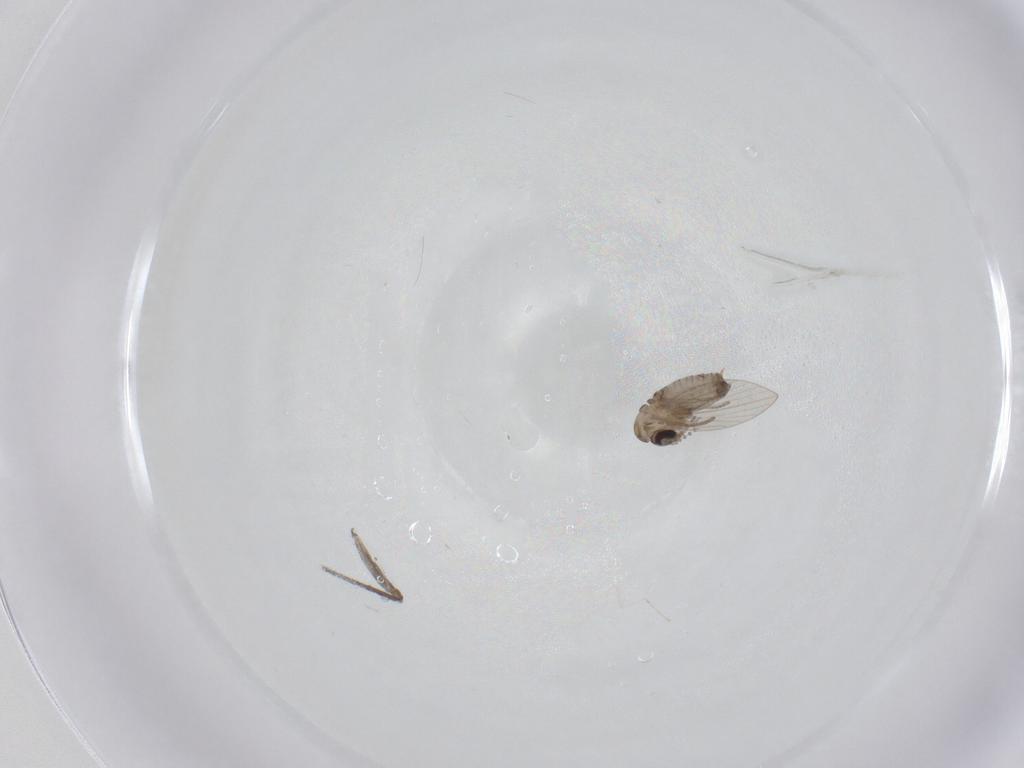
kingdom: Animalia
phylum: Arthropoda
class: Insecta
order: Diptera
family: Psychodidae
